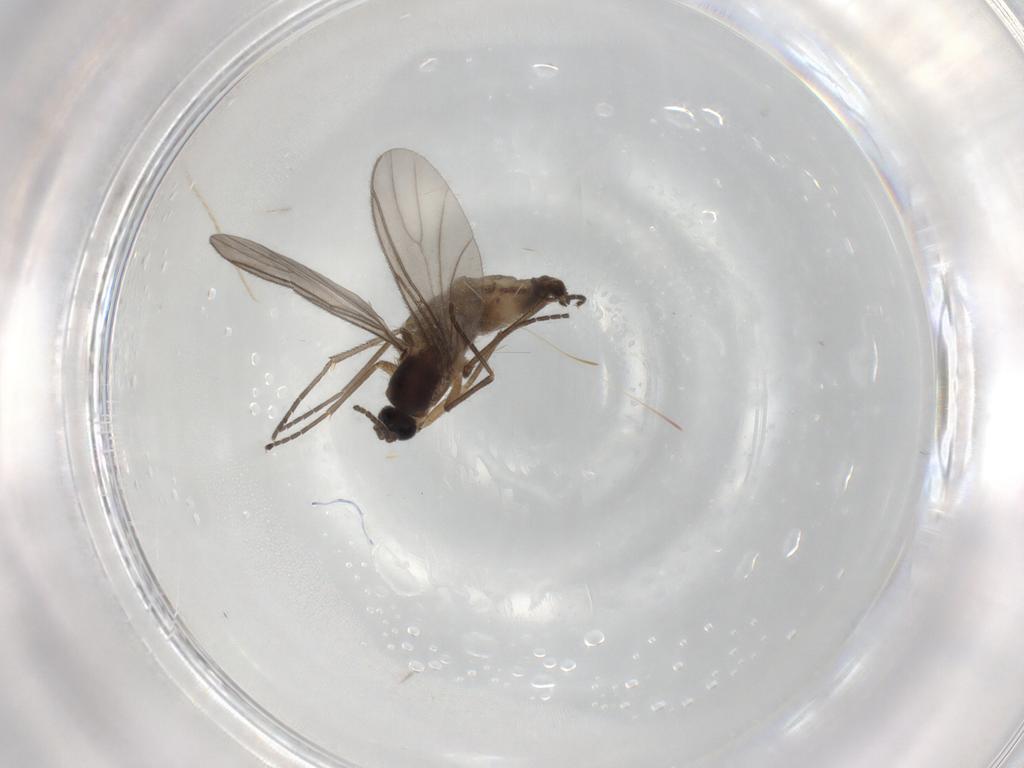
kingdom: Animalia
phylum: Arthropoda
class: Insecta
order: Diptera
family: Sciaridae
